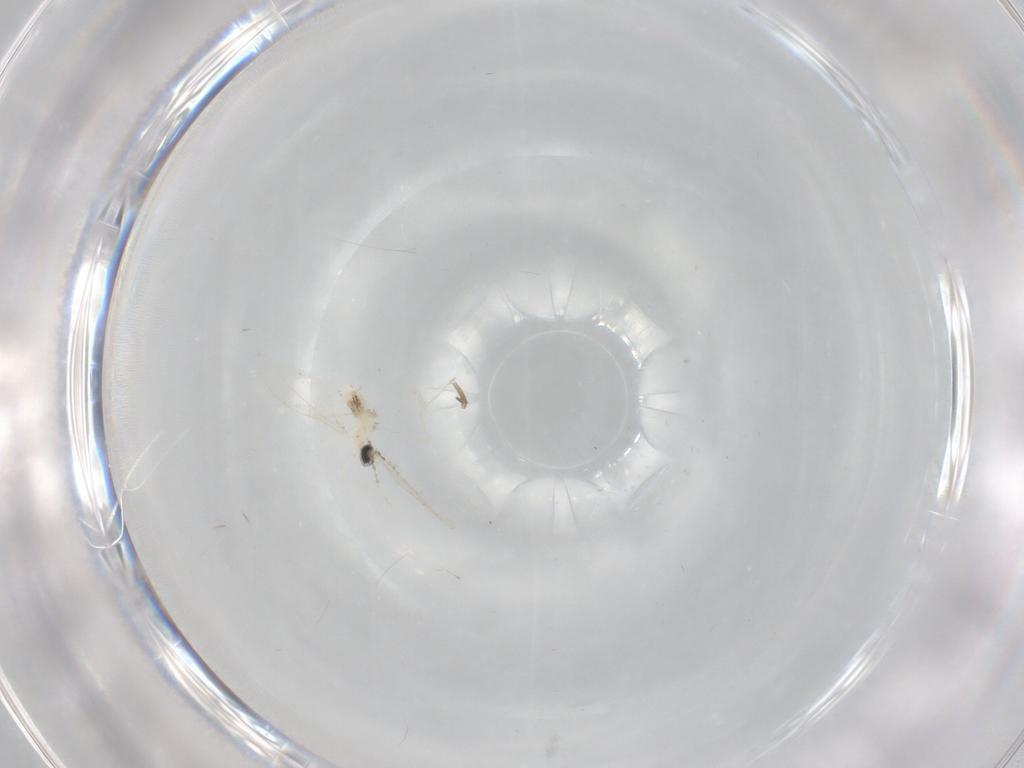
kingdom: Animalia
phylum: Arthropoda
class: Insecta
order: Diptera
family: Cecidomyiidae
